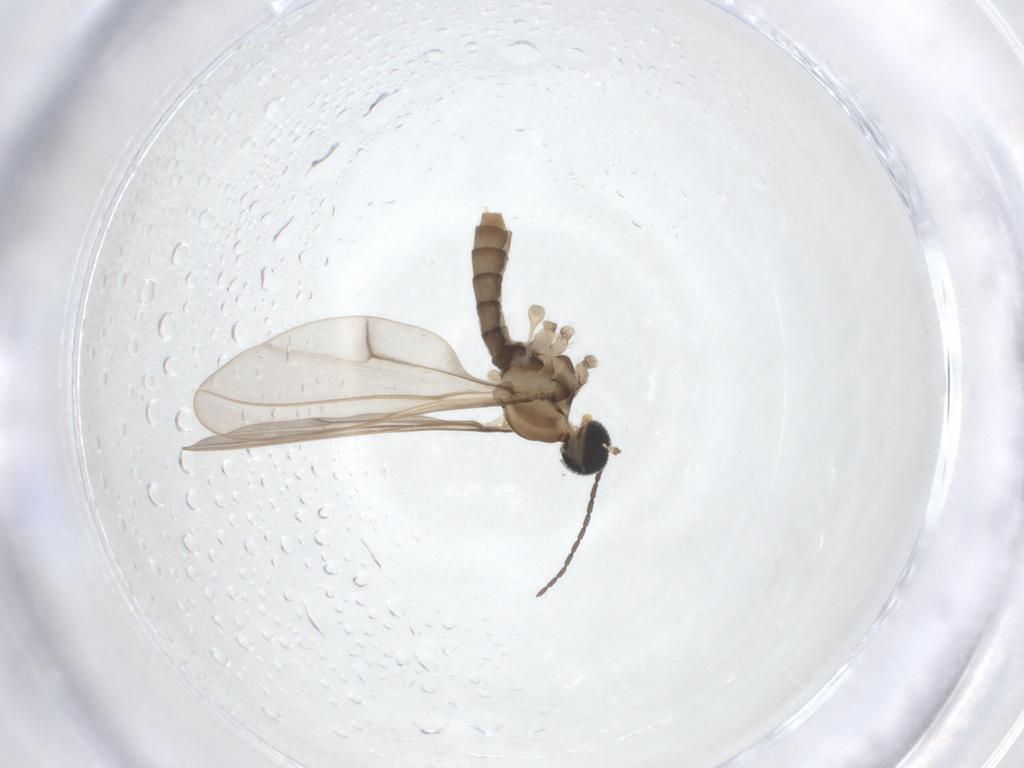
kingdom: Animalia
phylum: Arthropoda
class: Insecta
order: Diptera
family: Cecidomyiidae
